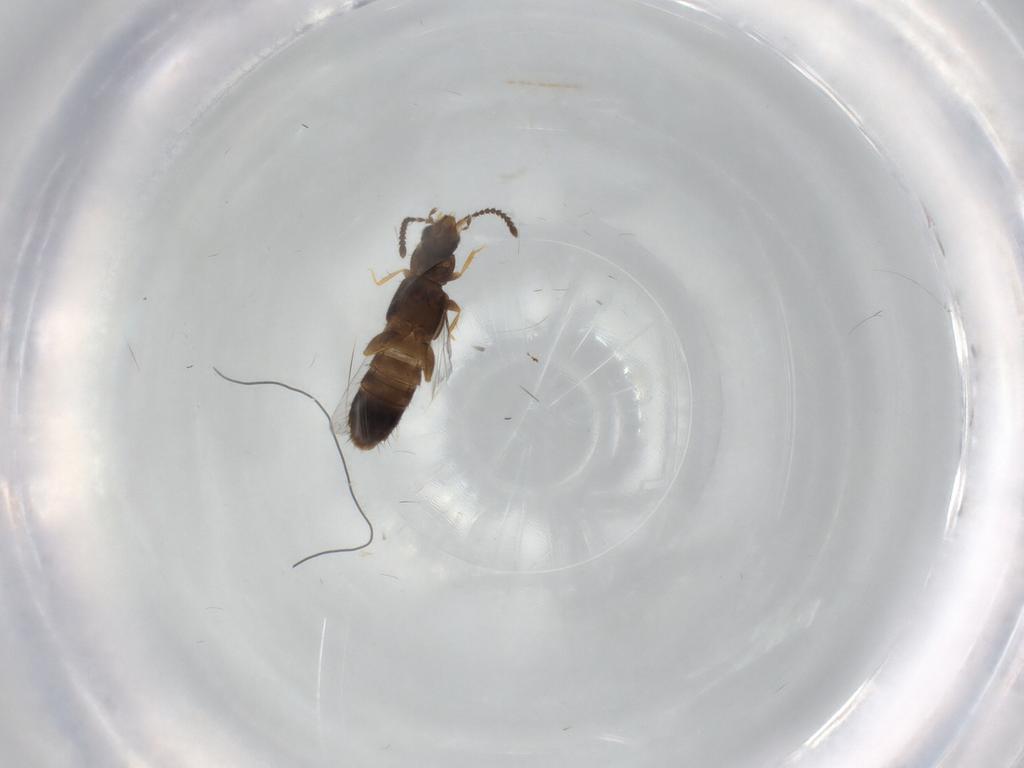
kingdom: Animalia
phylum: Arthropoda
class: Insecta
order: Coleoptera
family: Staphylinidae
